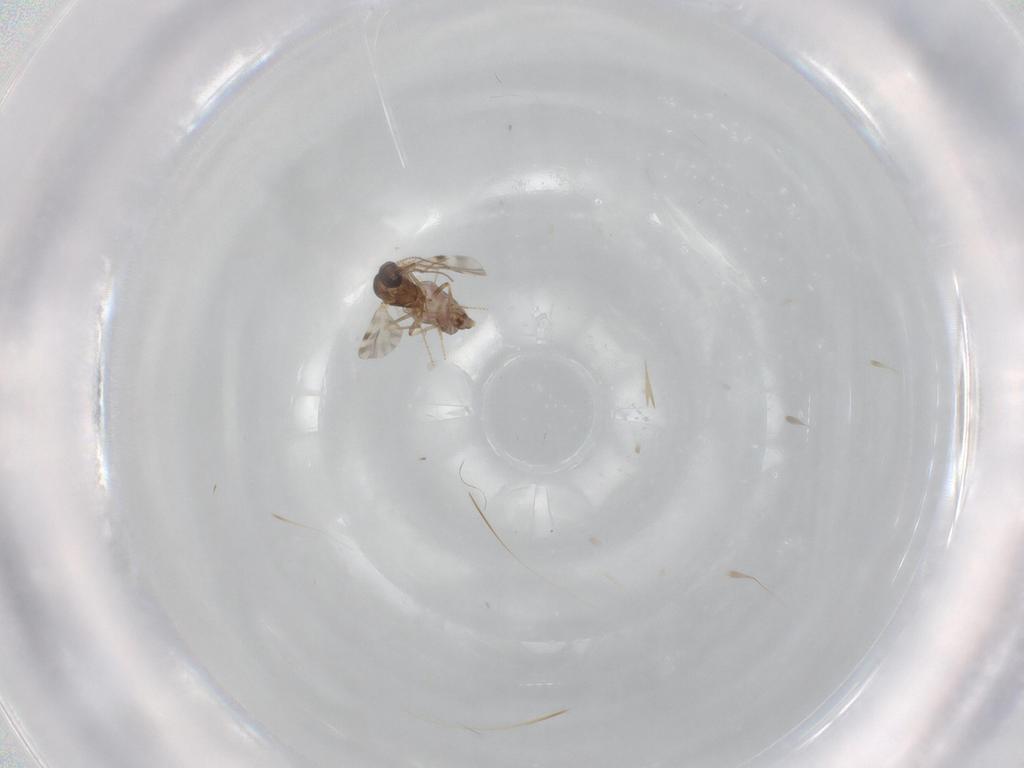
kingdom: Animalia
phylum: Arthropoda
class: Insecta
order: Diptera
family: Ceratopogonidae
